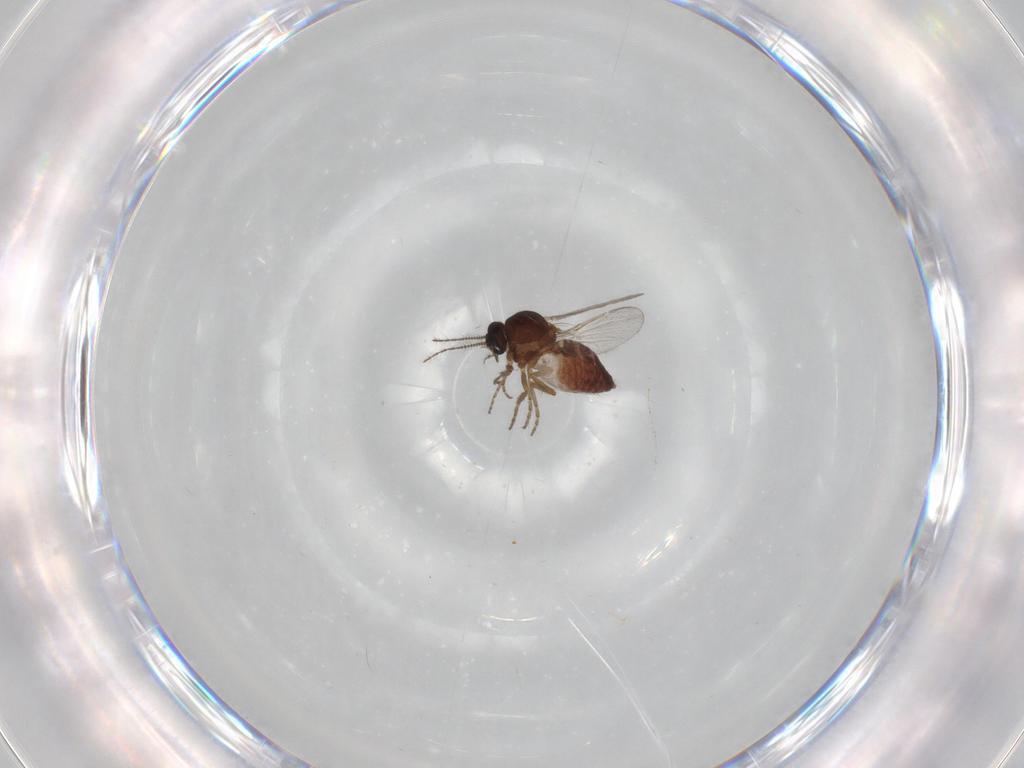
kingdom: Animalia
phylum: Arthropoda
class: Insecta
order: Diptera
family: Ceratopogonidae
